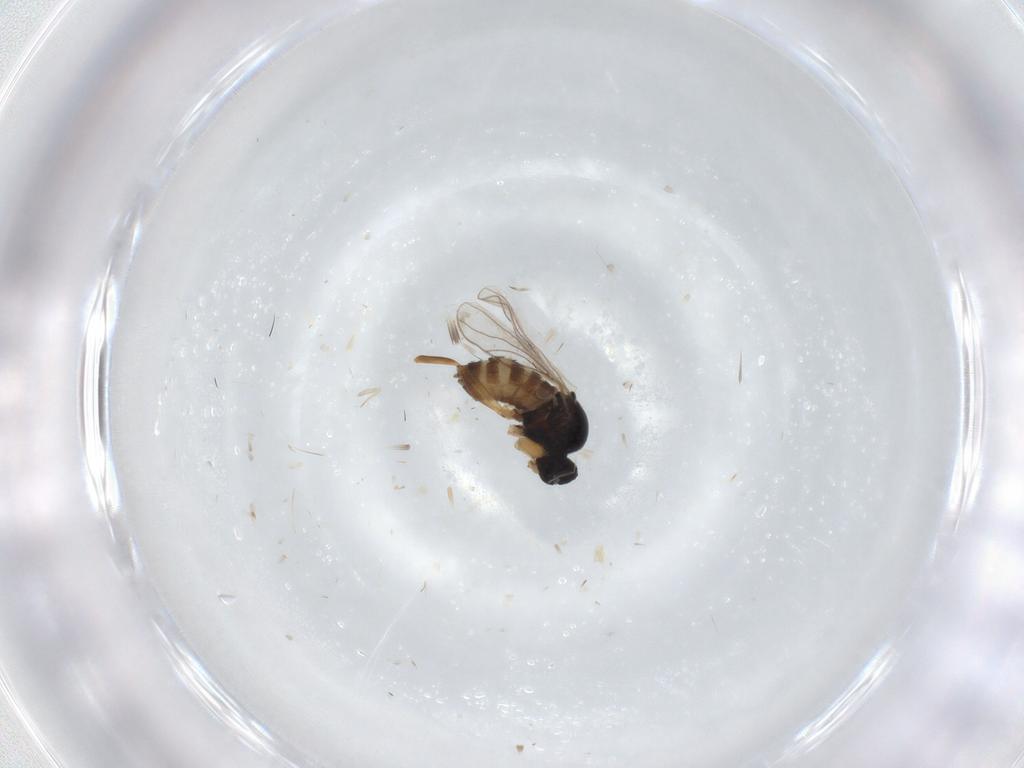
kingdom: Animalia
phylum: Arthropoda
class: Insecta
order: Diptera
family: Hybotidae
